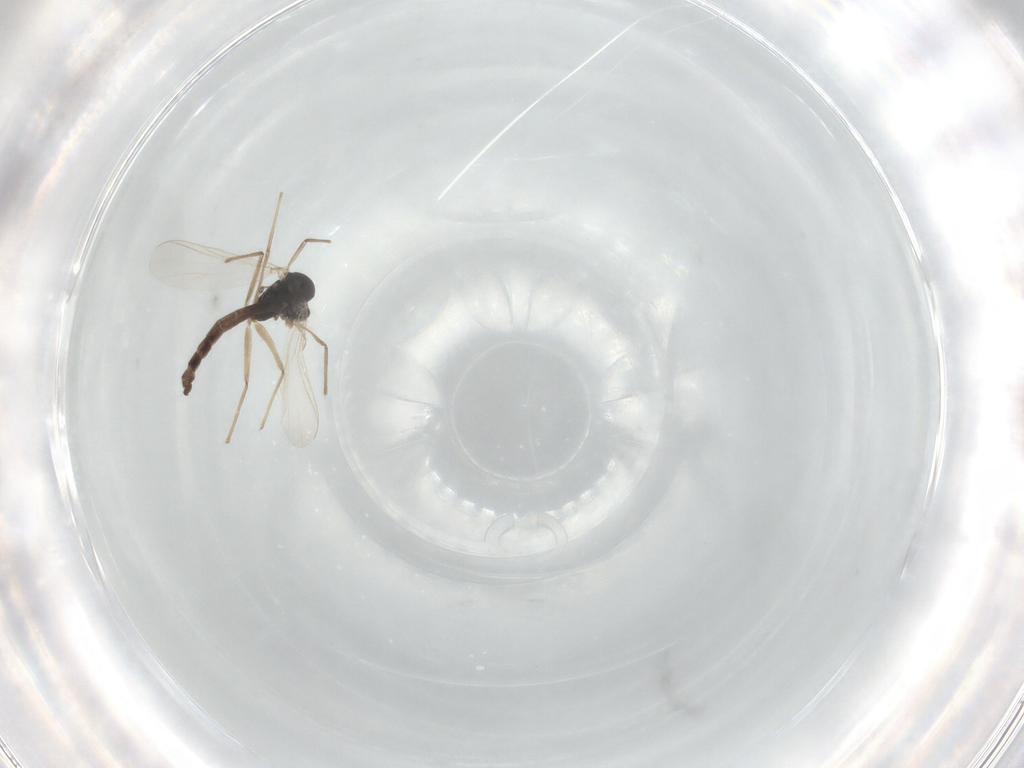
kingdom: Animalia
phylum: Arthropoda
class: Insecta
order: Diptera
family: Chironomidae
